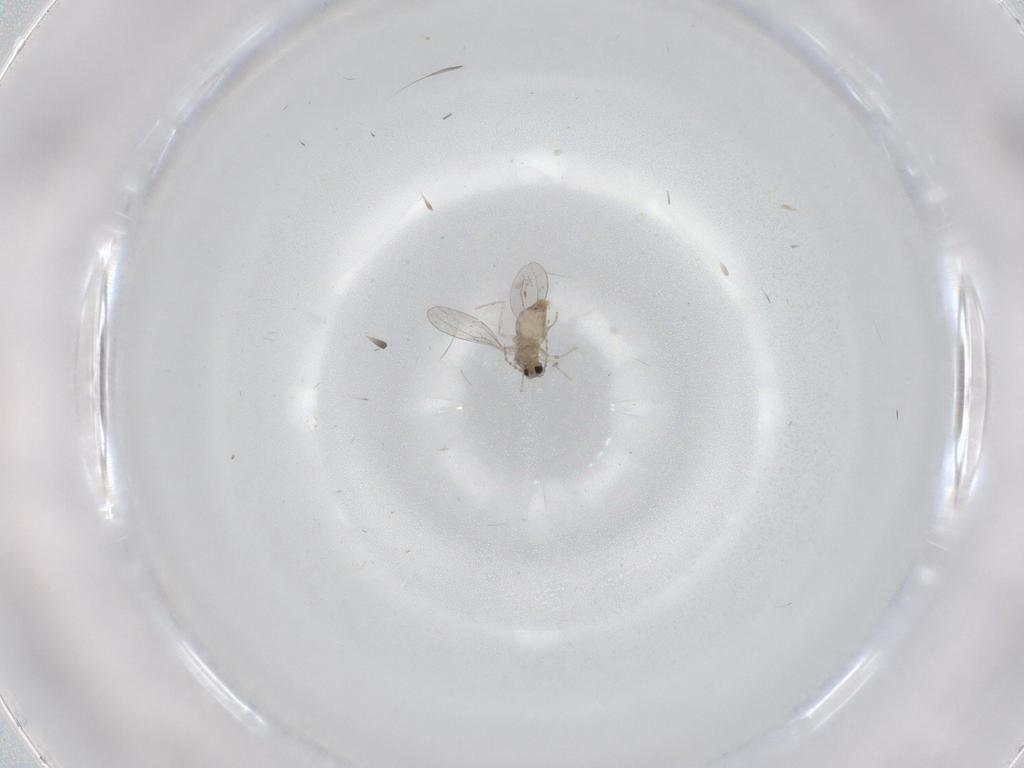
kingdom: Animalia
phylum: Arthropoda
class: Insecta
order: Diptera
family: Cecidomyiidae
